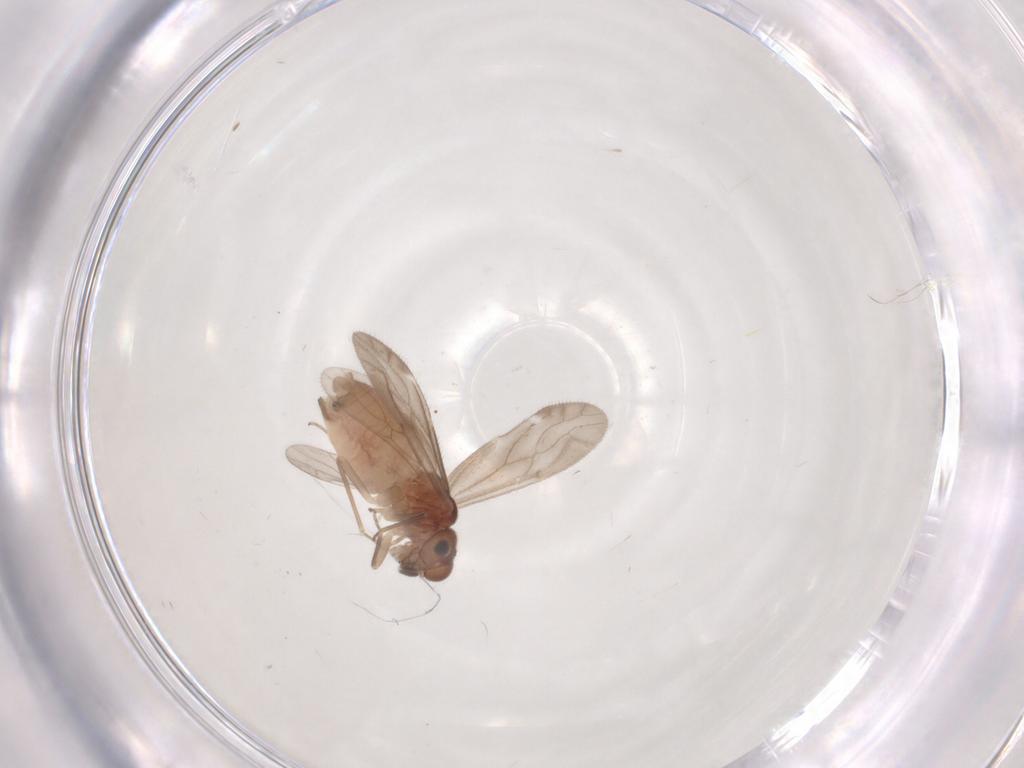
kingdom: Animalia
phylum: Arthropoda
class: Insecta
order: Psocodea
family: Caeciliusidae
